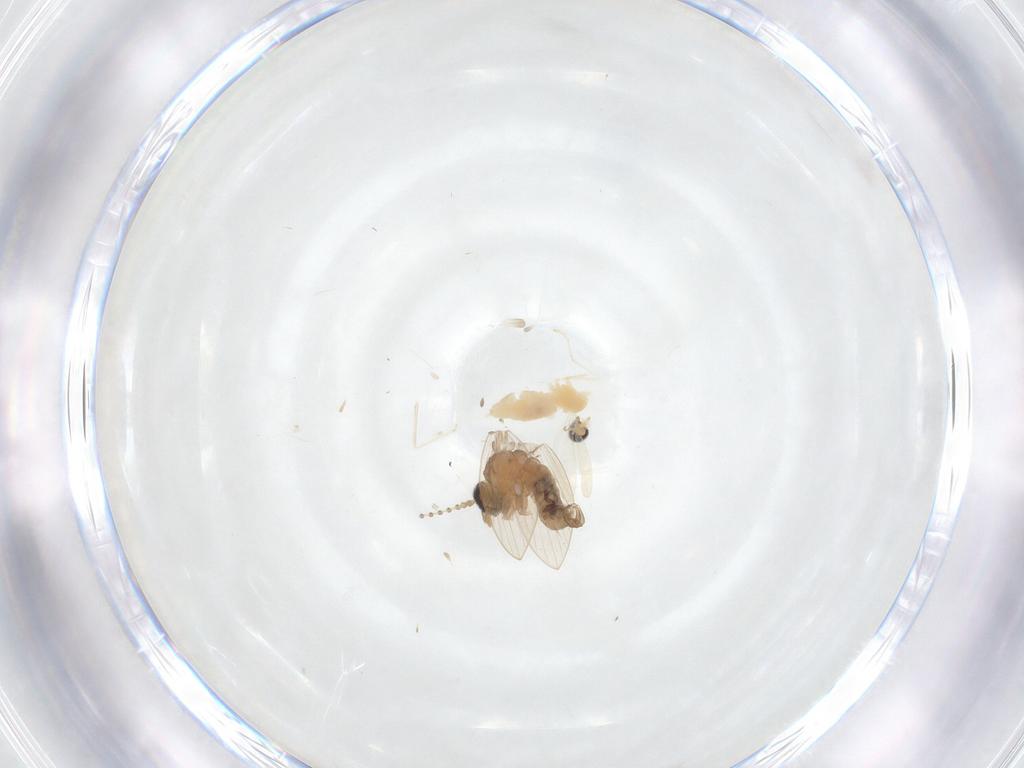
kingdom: Animalia
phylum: Arthropoda
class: Insecta
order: Diptera
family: Cecidomyiidae
